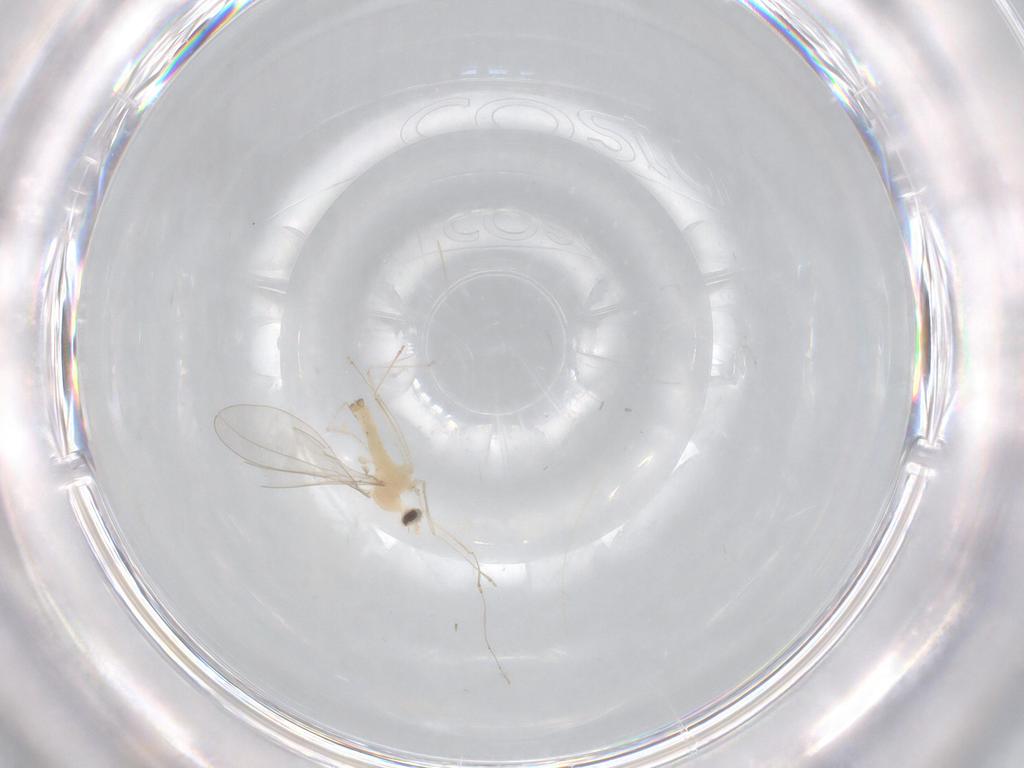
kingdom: Animalia
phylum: Arthropoda
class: Insecta
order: Diptera
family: Cecidomyiidae
